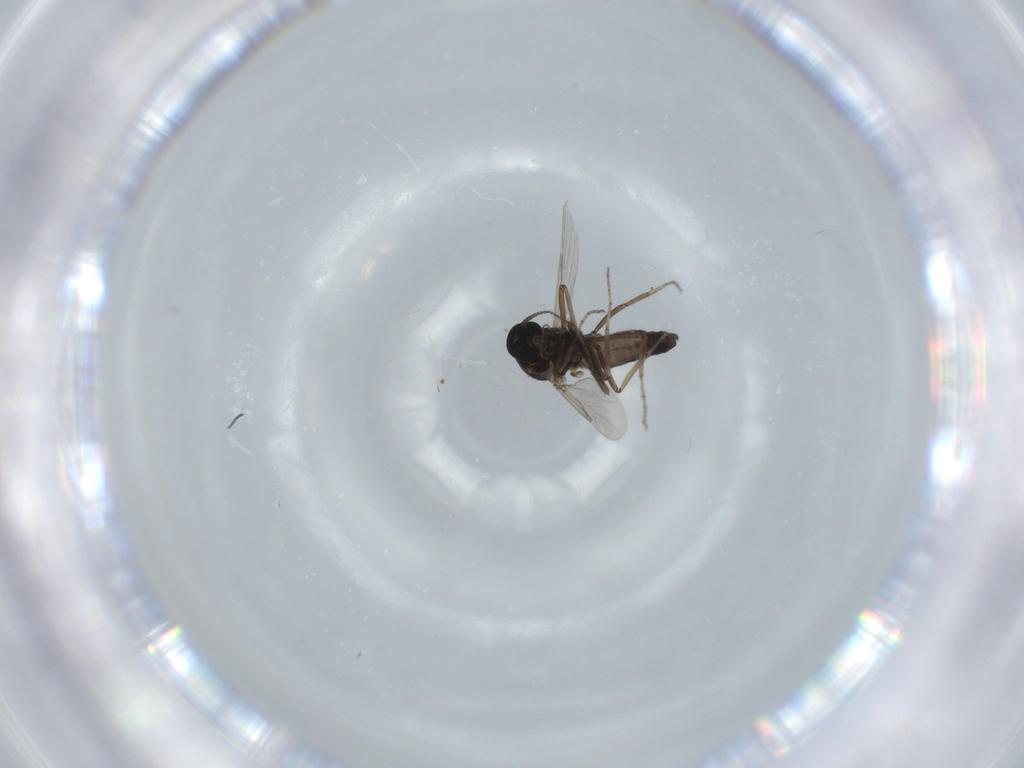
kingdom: Animalia
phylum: Arthropoda
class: Insecta
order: Diptera
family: Ceratopogonidae
